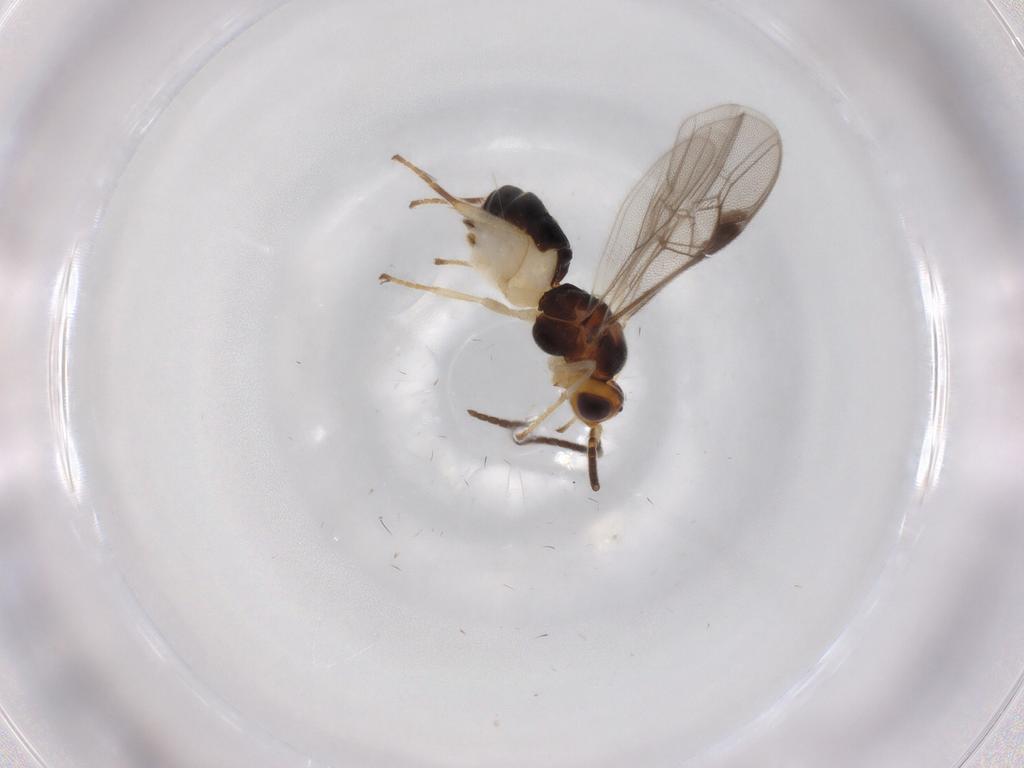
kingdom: Animalia
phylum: Arthropoda
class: Insecta
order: Hymenoptera
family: Braconidae
